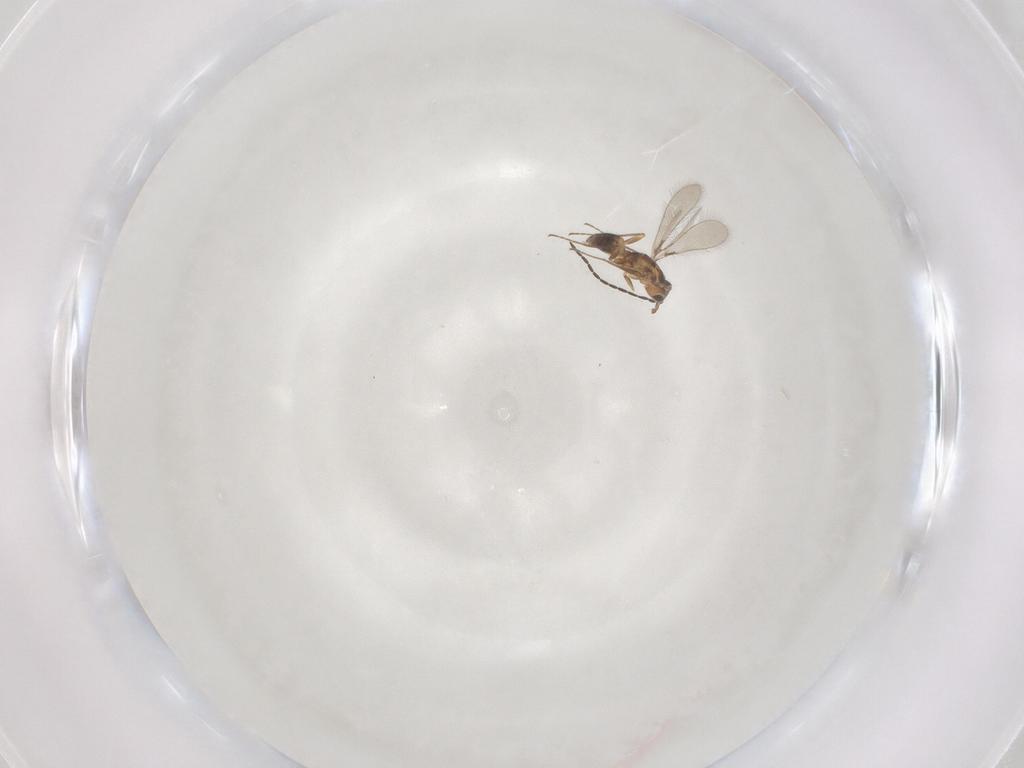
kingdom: Animalia
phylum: Arthropoda
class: Insecta
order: Hymenoptera
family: Mymaridae
